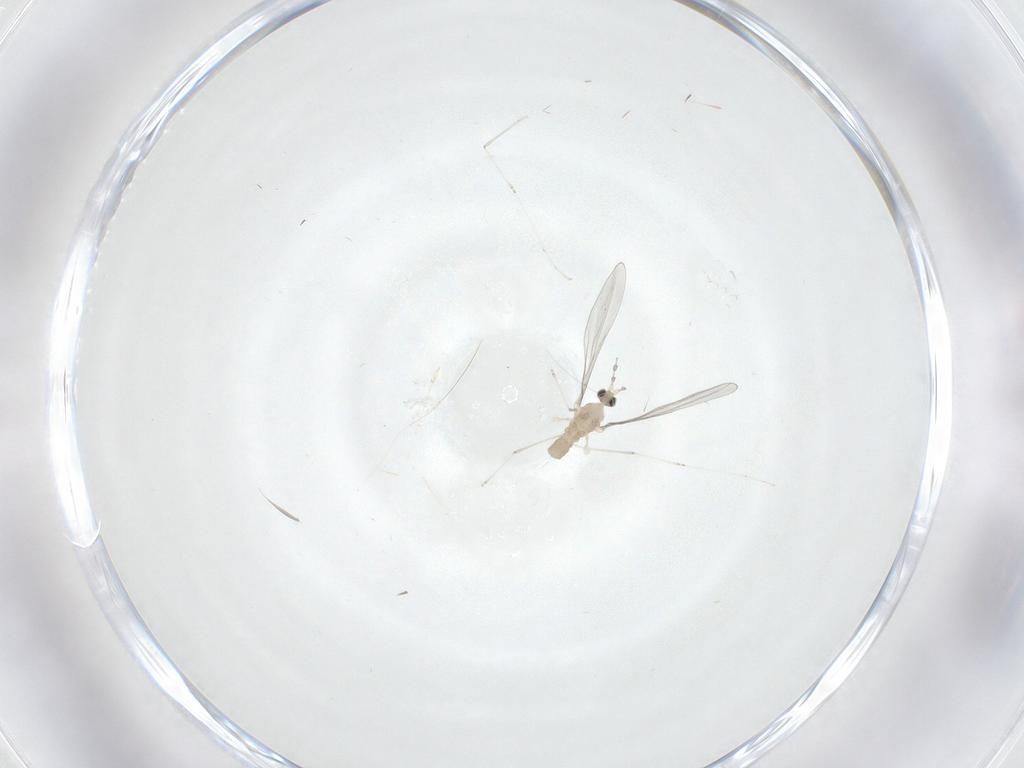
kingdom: Animalia
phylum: Arthropoda
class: Insecta
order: Diptera
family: Cecidomyiidae
